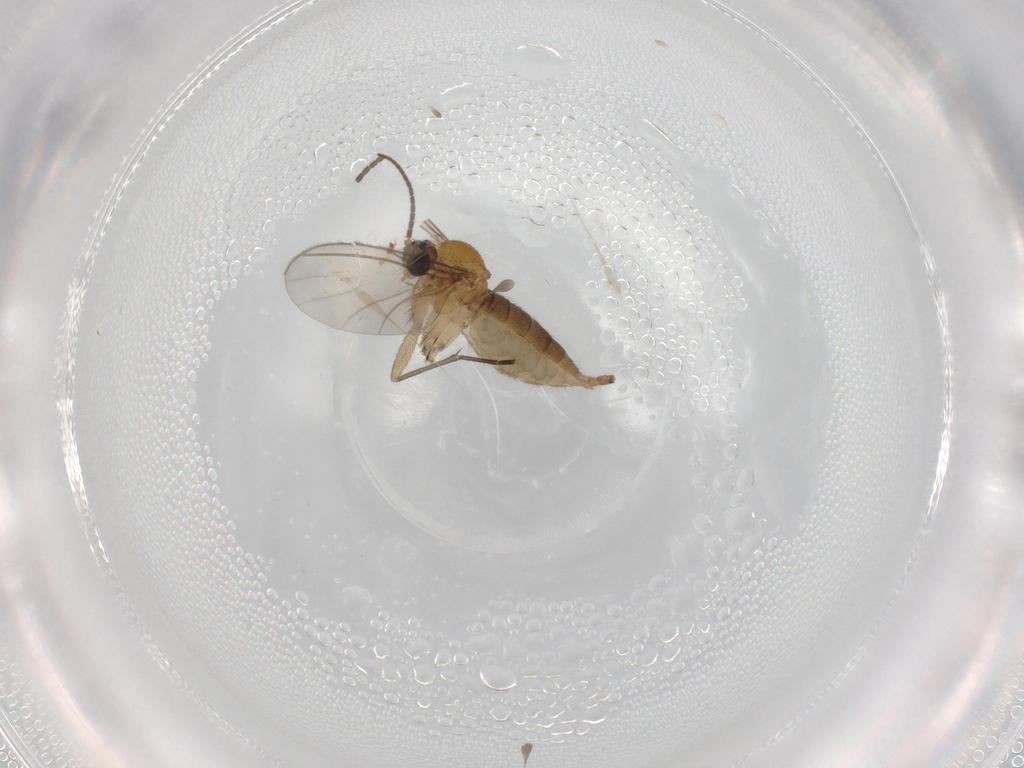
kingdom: Animalia
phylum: Arthropoda
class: Insecta
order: Diptera
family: Sciaridae
